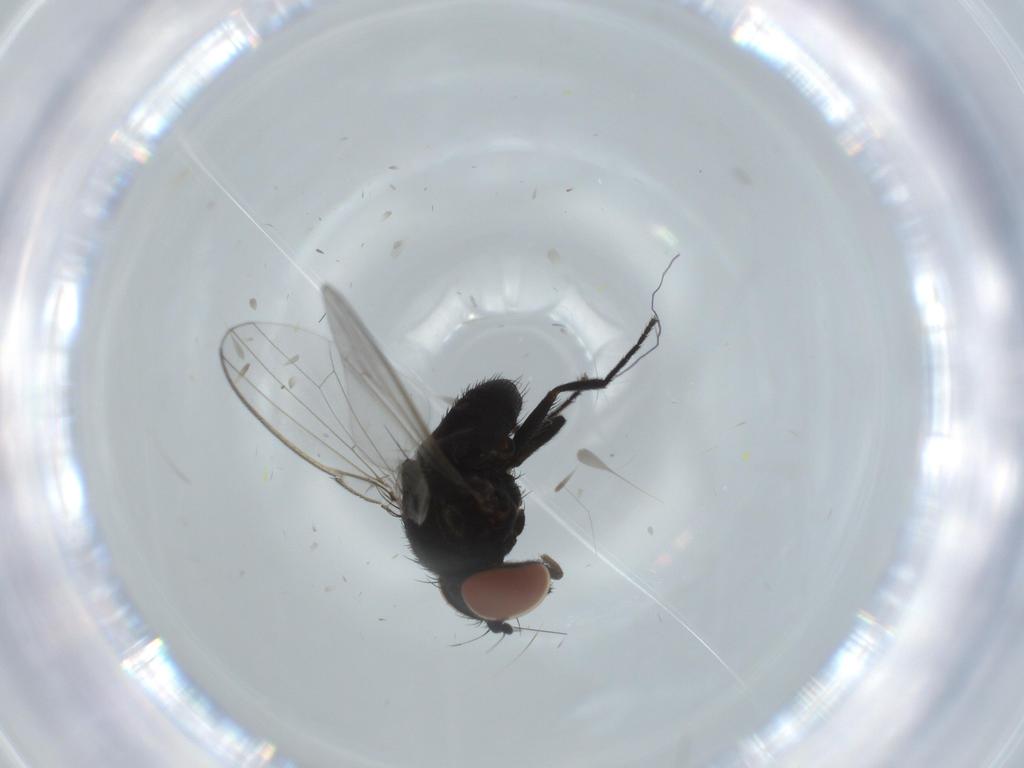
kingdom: Animalia
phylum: Arthropoda
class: Insecta
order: Diptera
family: Milichiidae
